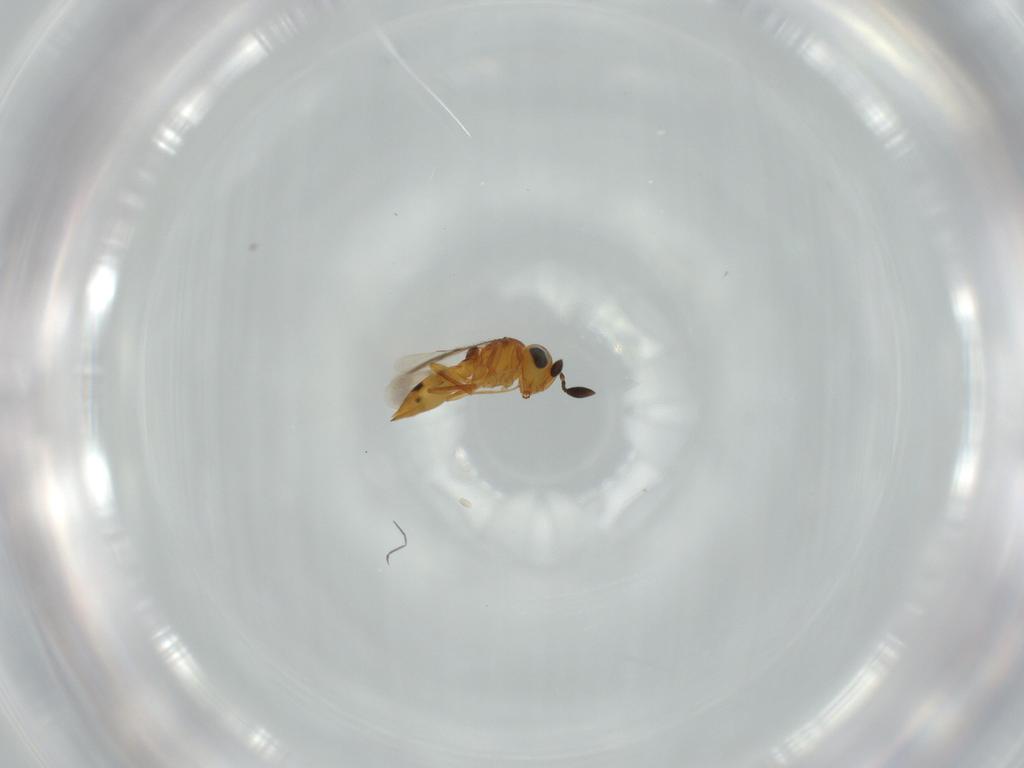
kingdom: Animalia
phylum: Arthropoda
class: Insecta
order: Hymenoptera
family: Scelionidae
